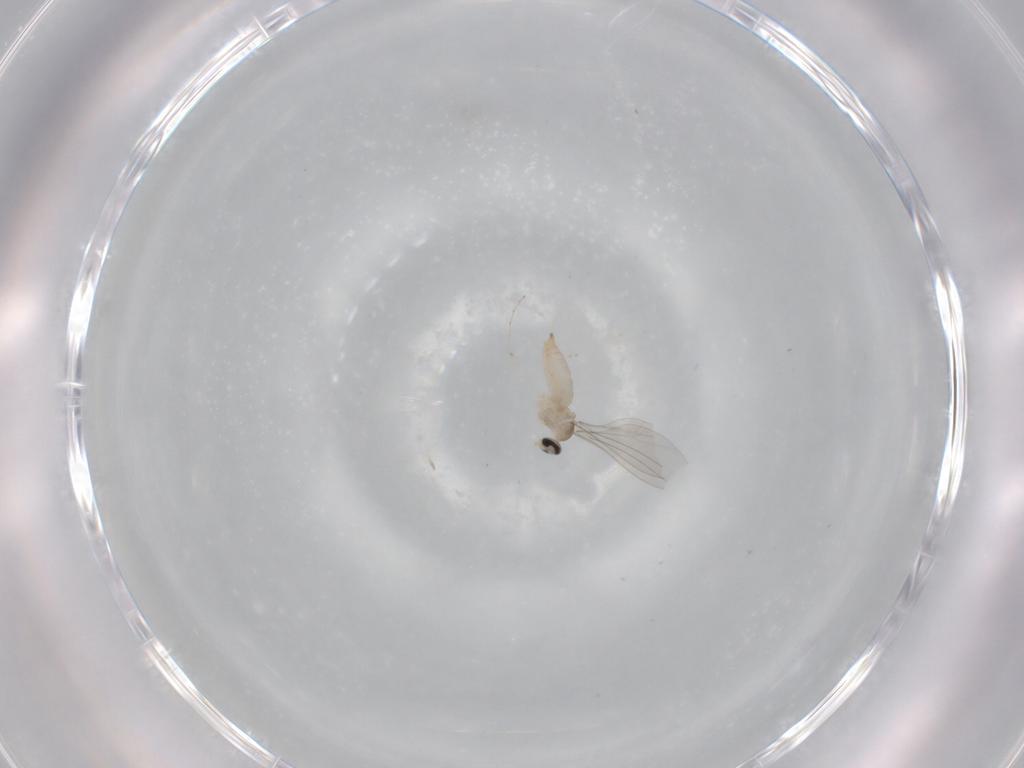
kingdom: Animalia
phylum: Arthropoda
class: Insecta
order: Diptera
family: Cecidomyiidae
